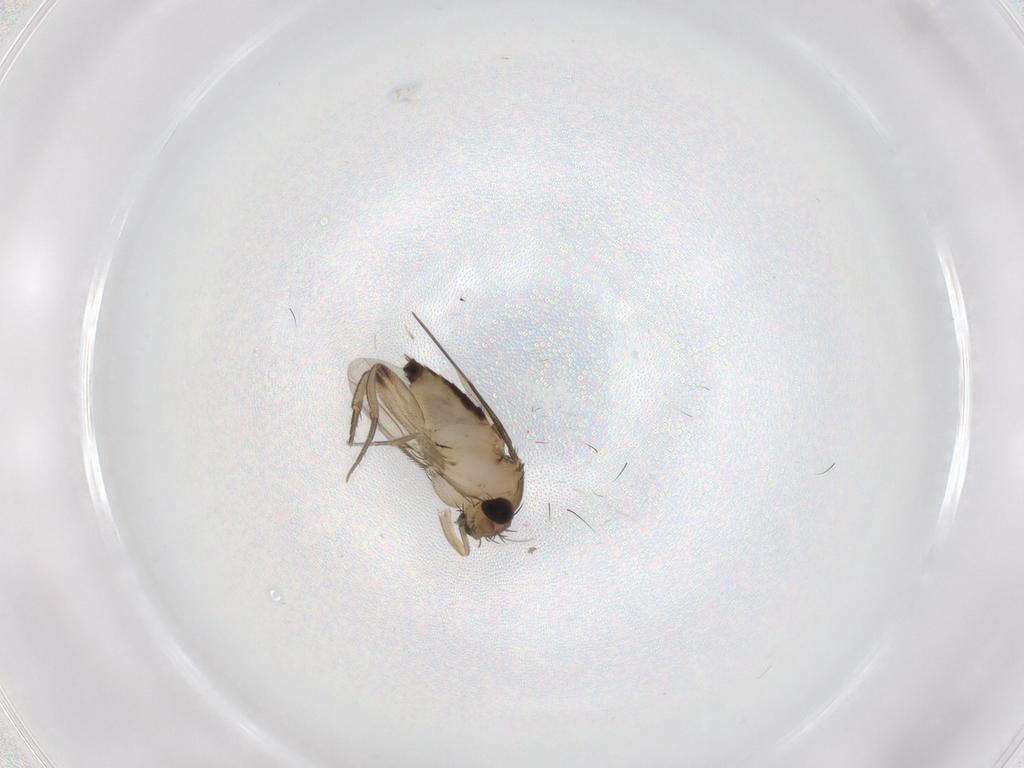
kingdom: Animalia
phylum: Arthropoda
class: Insecta
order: Diptera
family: Phoridae
